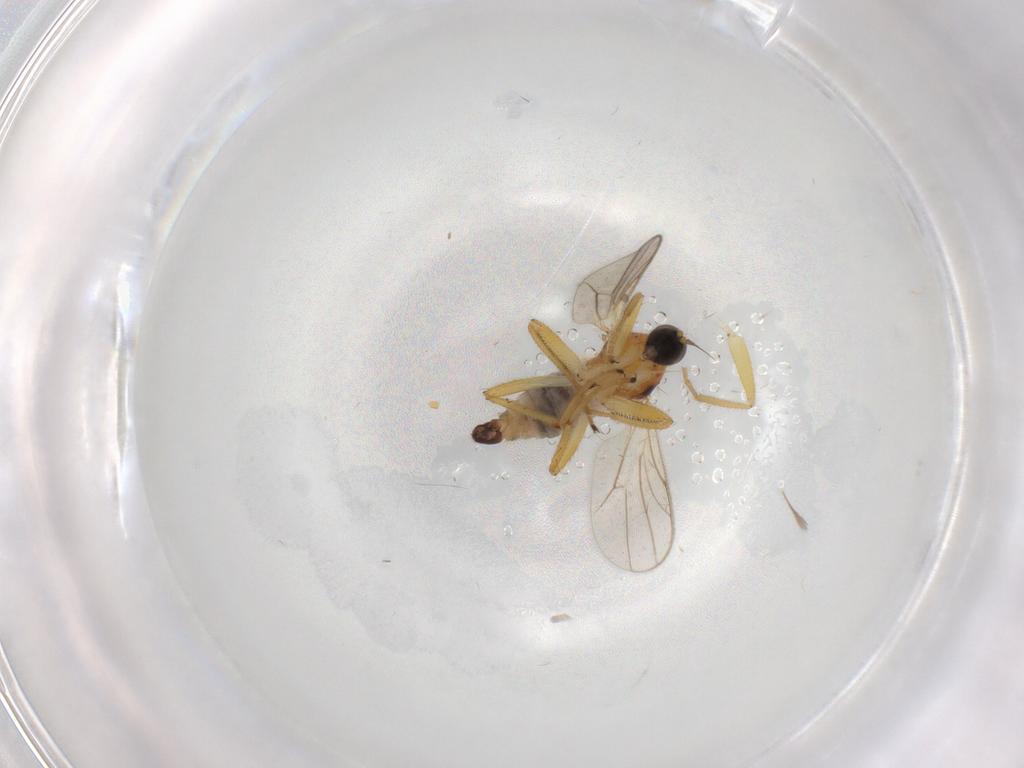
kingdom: Animalia
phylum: Arthropoda
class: Insecta
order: Diptera
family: Hybotidae
